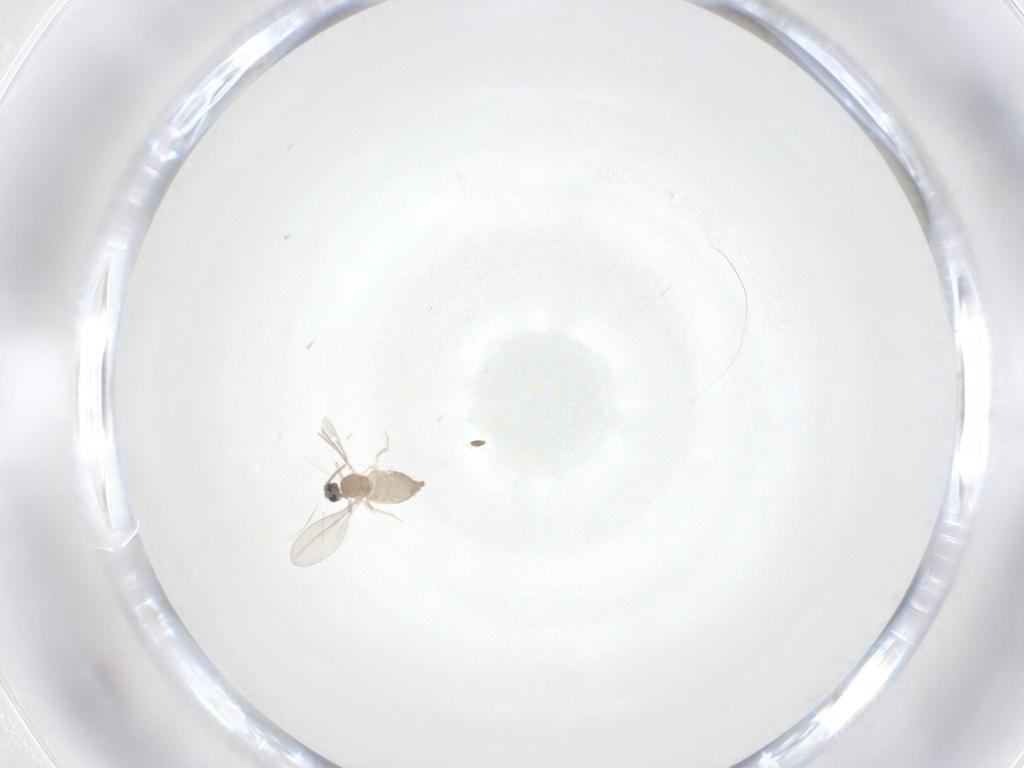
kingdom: Animalia
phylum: Arthropoda
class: Insecta
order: Diptera
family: Cecidomyiidae
